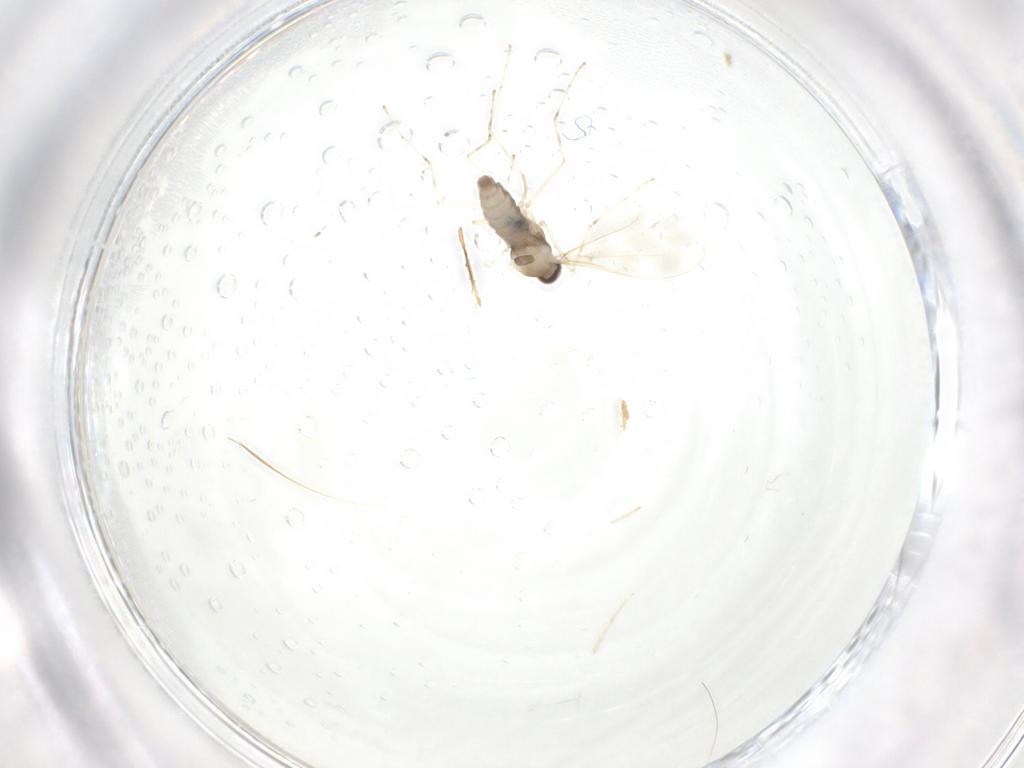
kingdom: Animalia
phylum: Arthropoda
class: Insecta
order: Diptera
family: Cecidomyiidae
